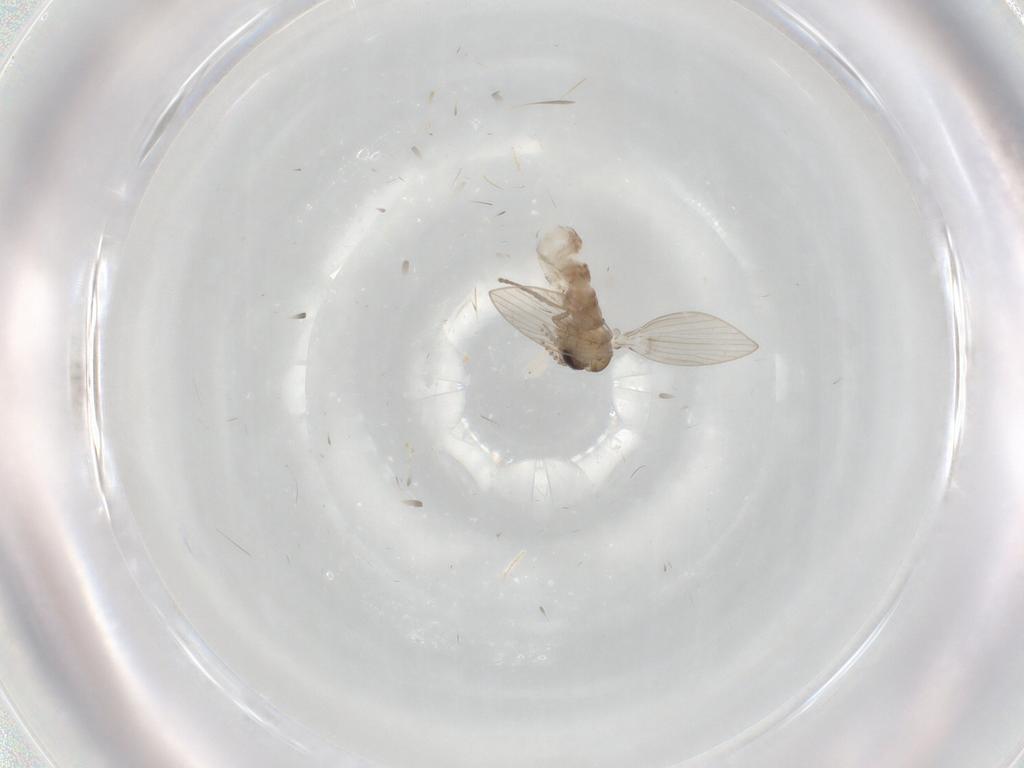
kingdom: Animalia
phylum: Arthropoda
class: Insecta
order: Diptera
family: Psychodidae
